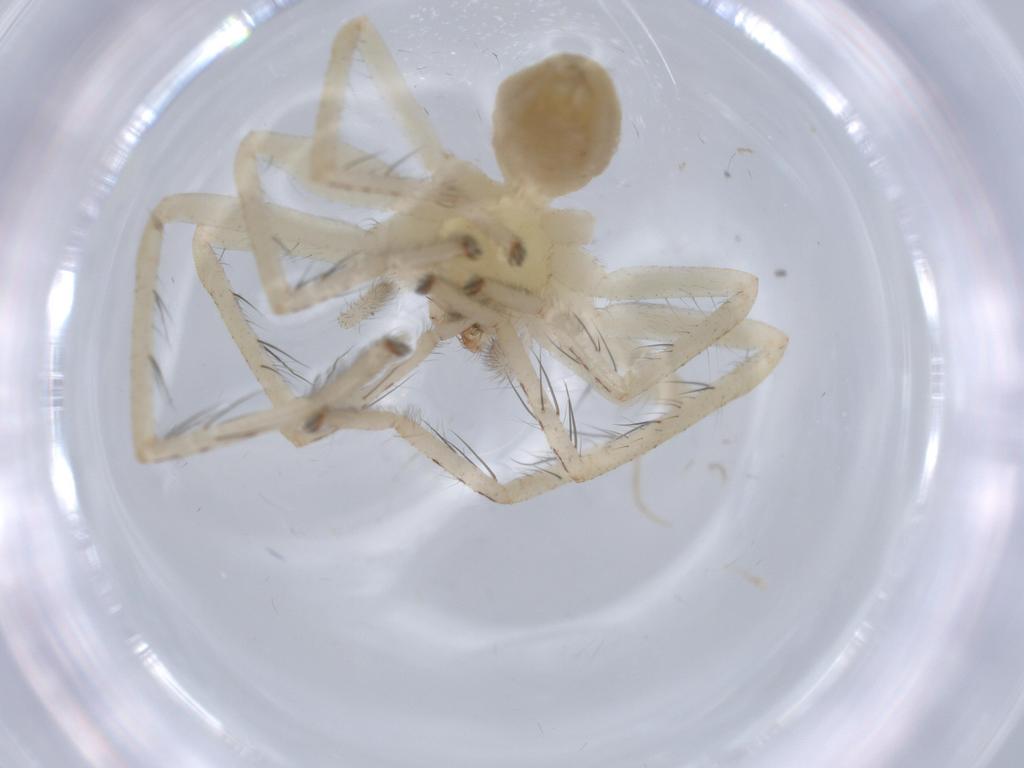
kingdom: Animalia
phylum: Arthropoda
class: Arachnida
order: Araneae
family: Sparassidae
